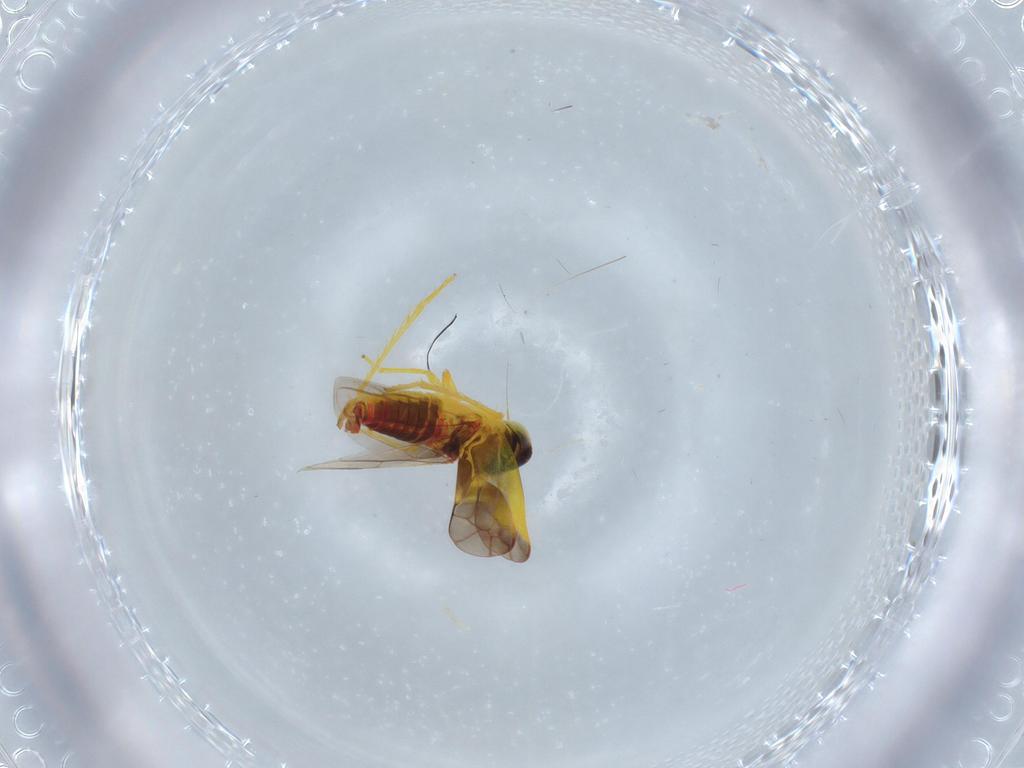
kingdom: Animalia
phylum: Arthropoda
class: Insecta
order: Hemiptera
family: Cicadellidae
